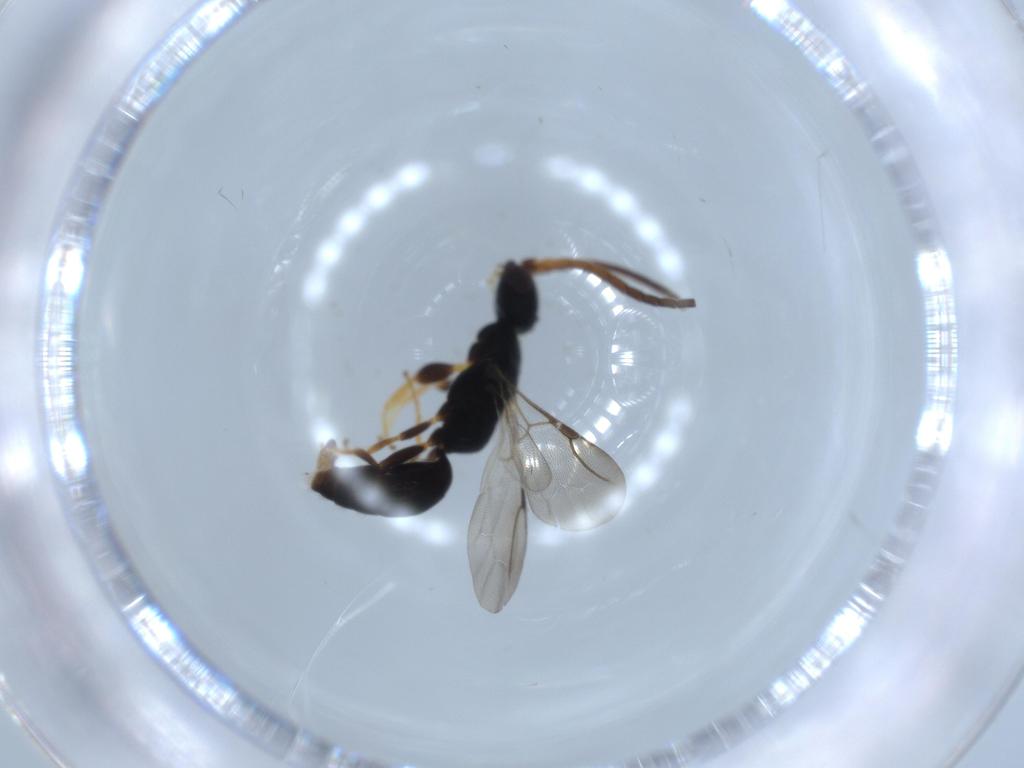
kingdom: Animalia
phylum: Arthropoda
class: Insecta
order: Hymenoptera
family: Bethylidae
